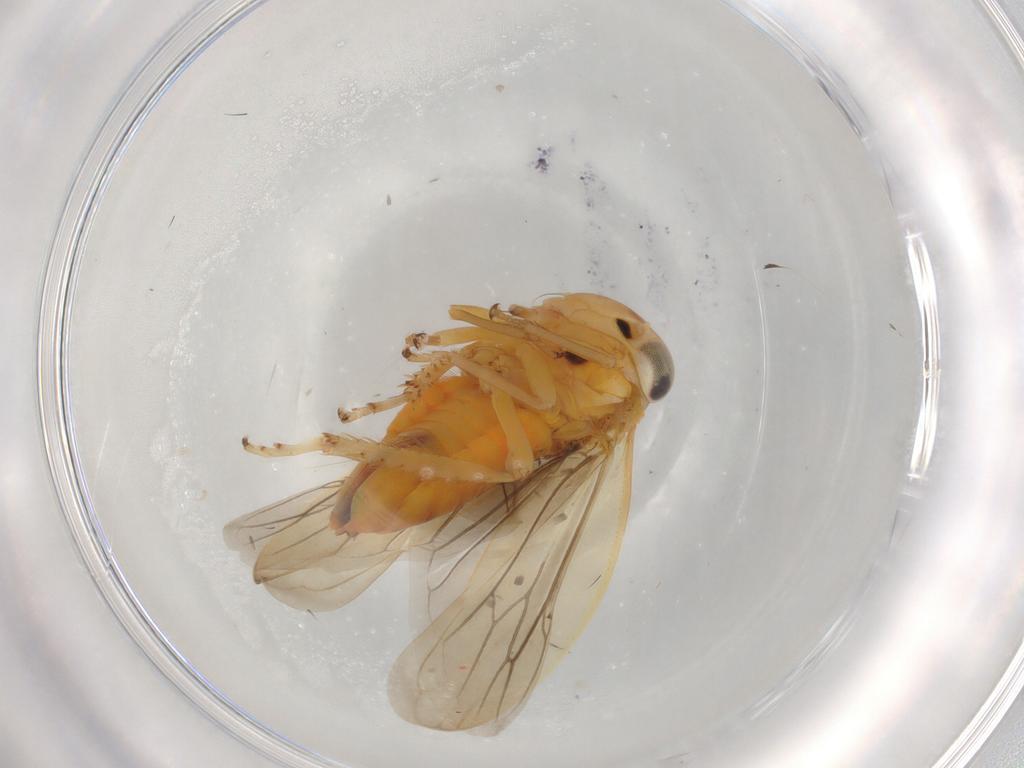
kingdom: Animalia
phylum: Arthropoda
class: Insecta
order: Hemiptera
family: Cicadellidae
